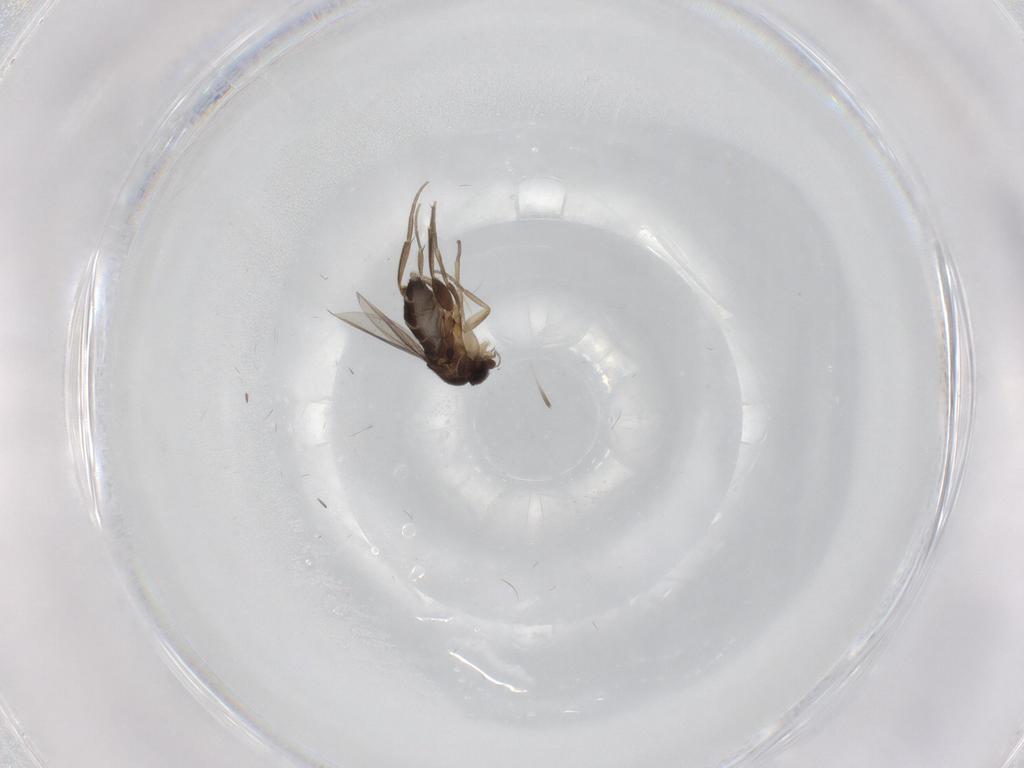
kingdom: Animalia
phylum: Arthropoda
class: Insecta
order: Diptera
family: Phoridae
